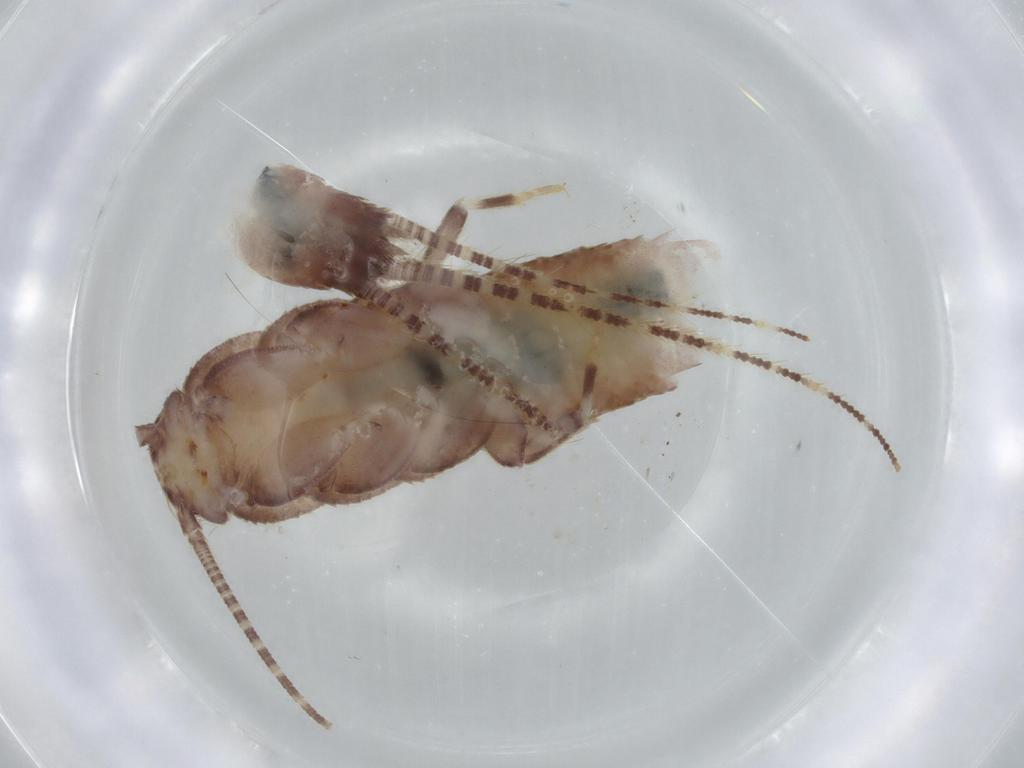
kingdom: Animalia
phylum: Arthropoda
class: Insecta
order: Zygentoma
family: Lepismatidae
